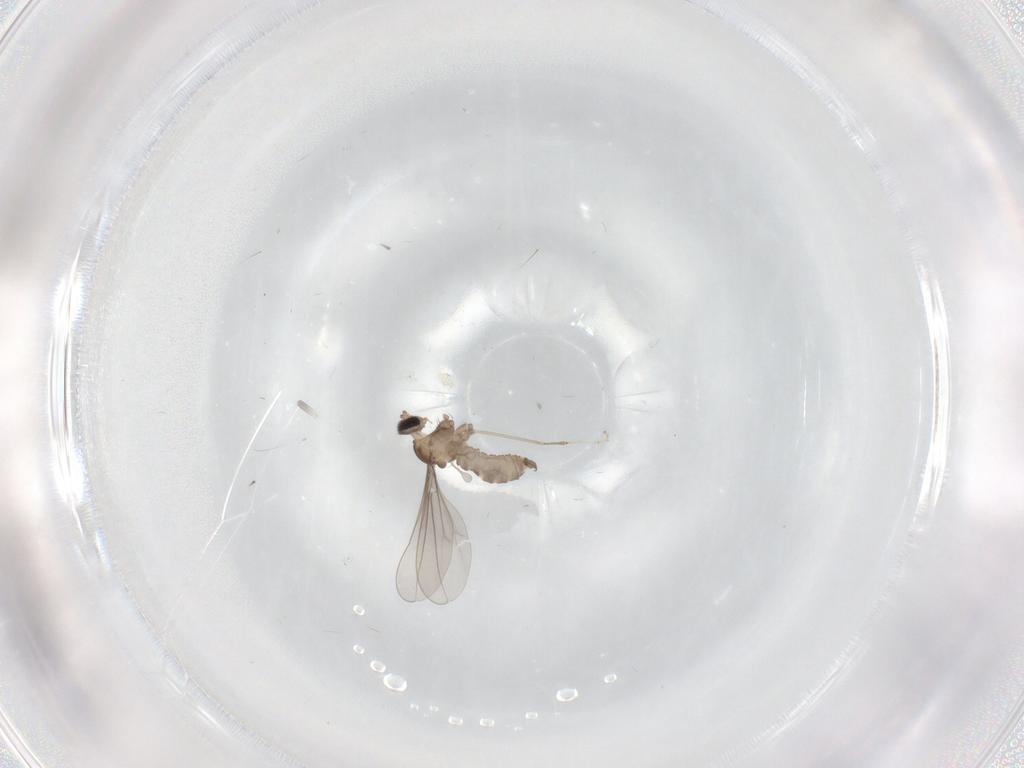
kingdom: Animalia
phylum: Arthropoda
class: Insecta
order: Diptera
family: Cecidomyiidae
